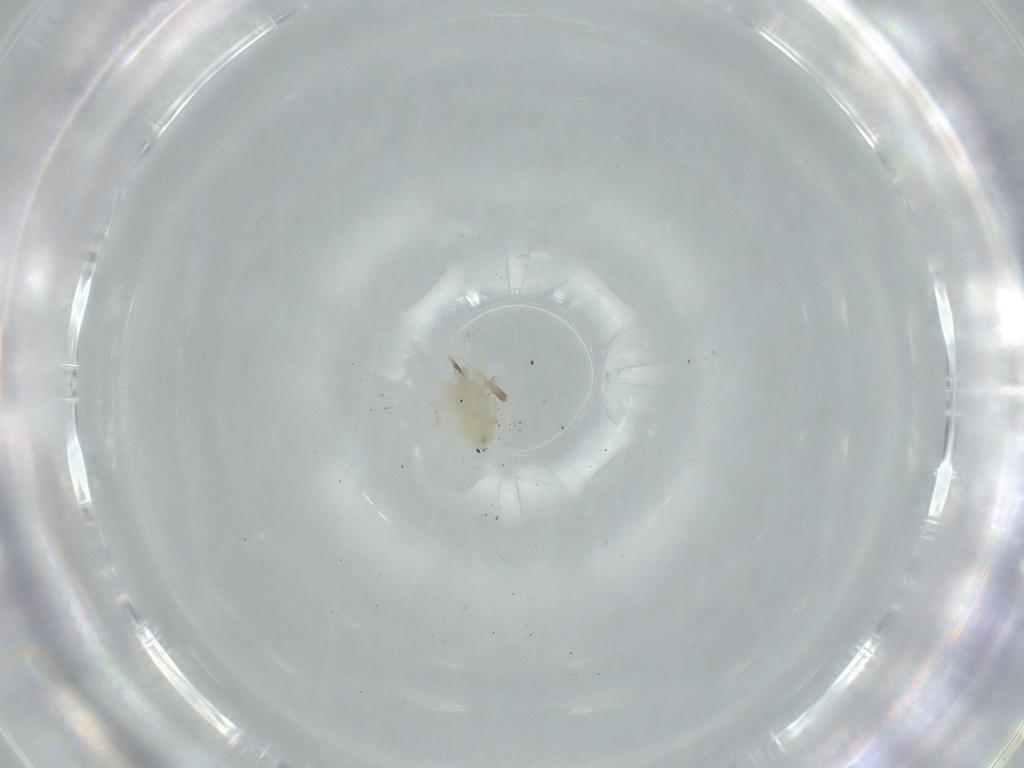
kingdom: Animalia
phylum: Arthropoda
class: Arachnida
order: Trombidiformes
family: Anystidae
